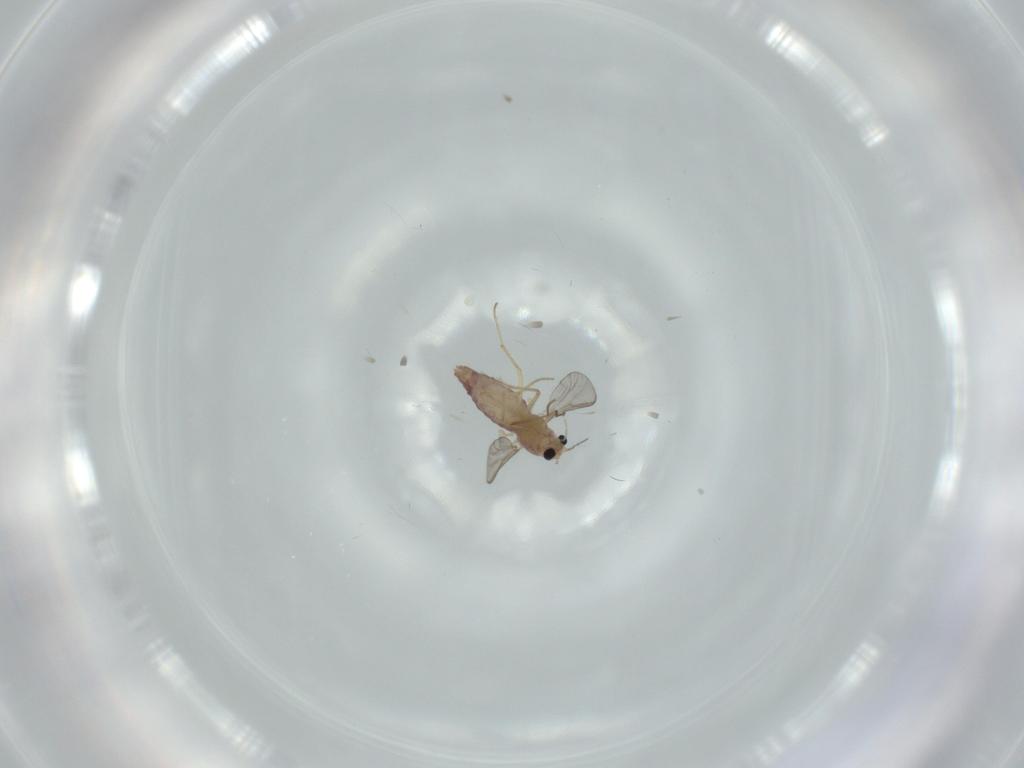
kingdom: Animalia
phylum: Arthropoda
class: Insecta
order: Diptera
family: Chironomidae
